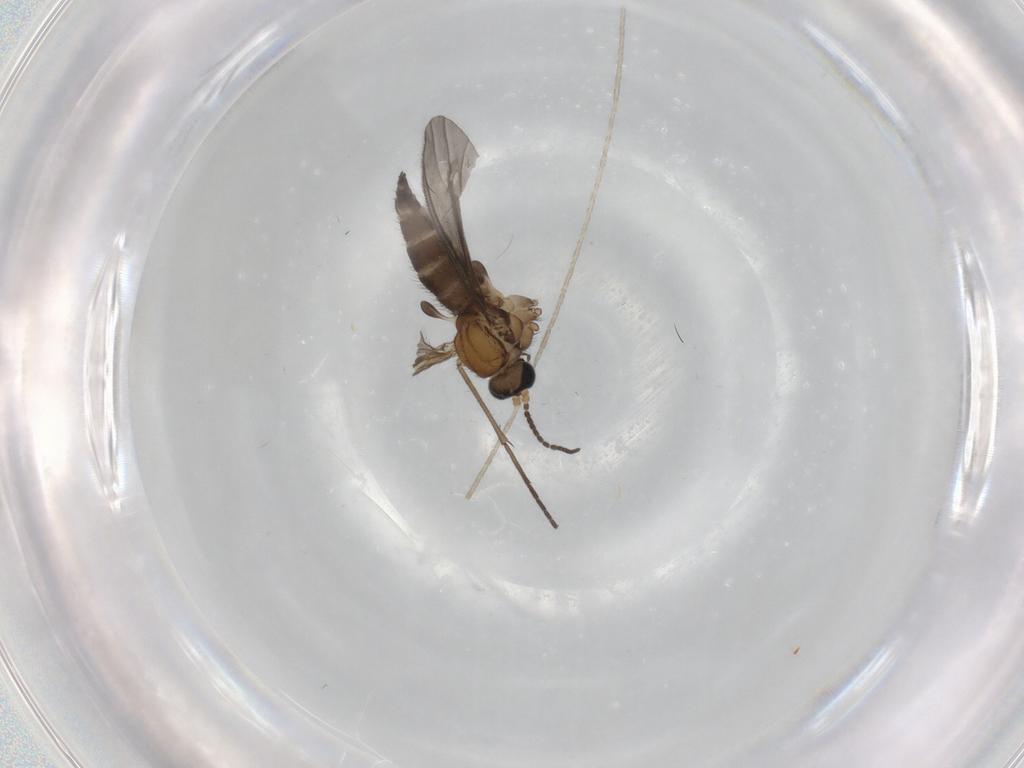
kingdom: Animalia
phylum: Arthropoda
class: Insecta
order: Diptera
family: Sciaridae
